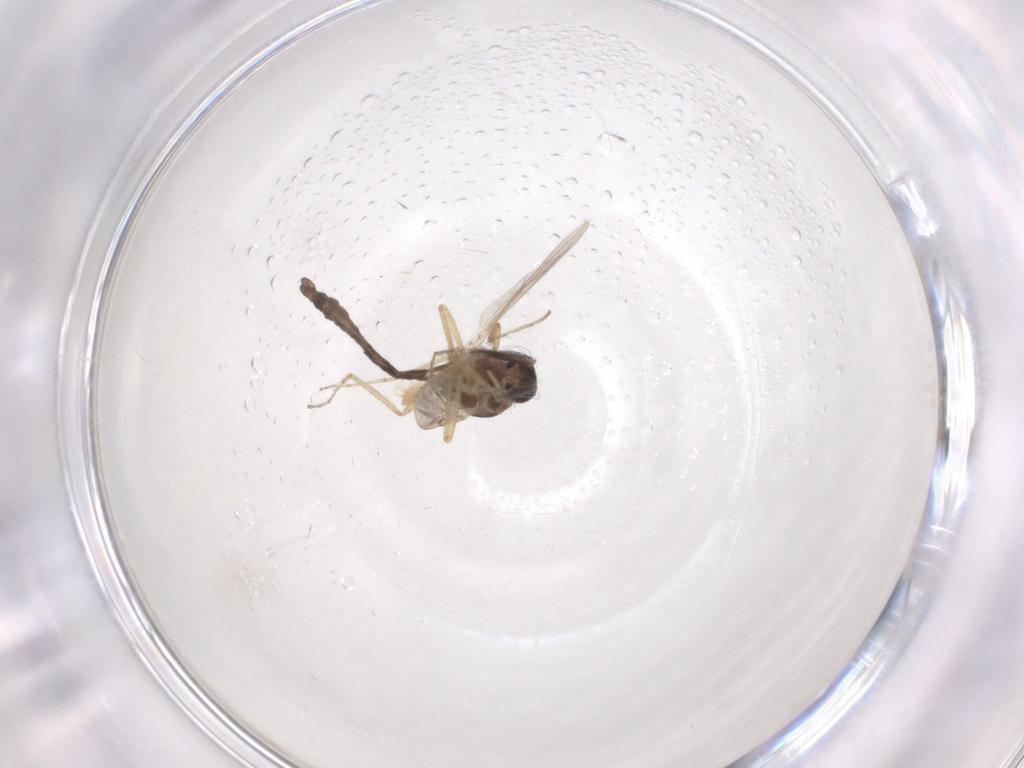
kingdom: Animalia
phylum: Arthropoda
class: Insecta
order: Diptera
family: Ceratopogonidae
